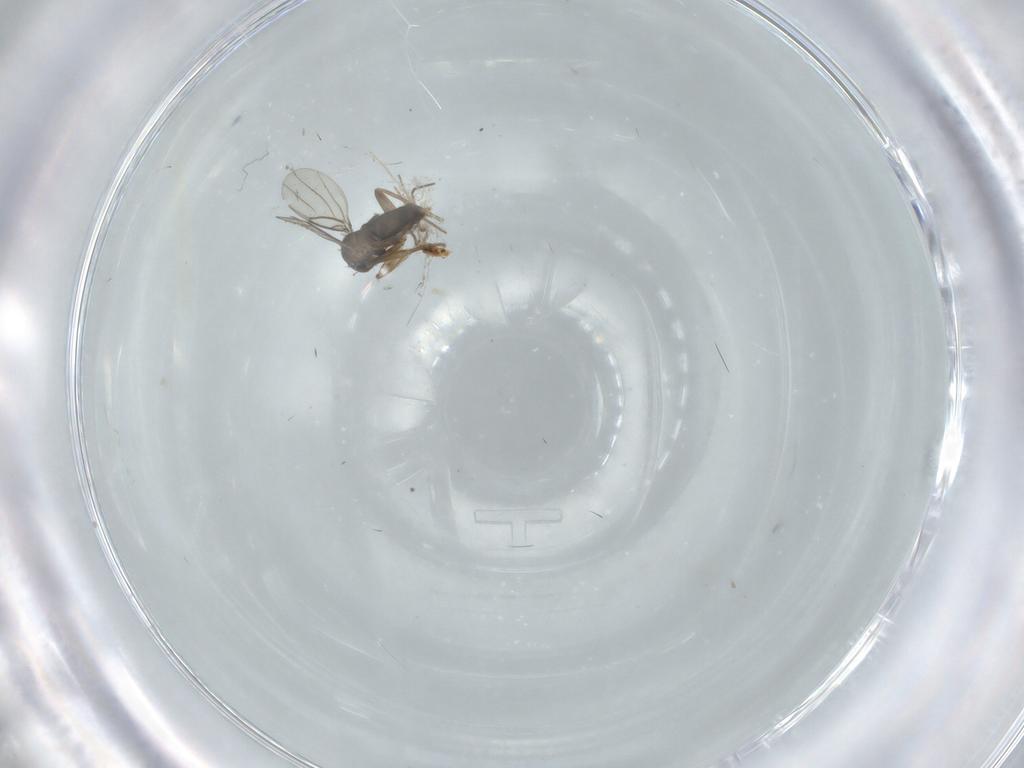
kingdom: Animalia
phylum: Arthropoda
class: Insecta
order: Diptera
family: Phoridae
